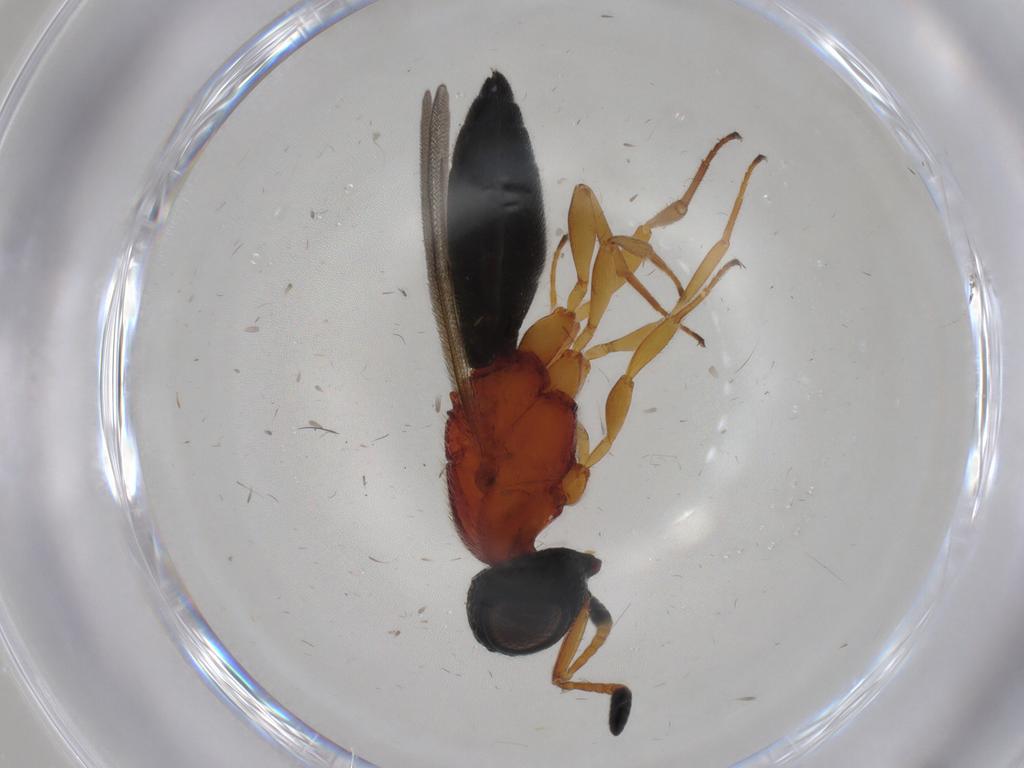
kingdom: Animalia
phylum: Arthropoda
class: Insecta
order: Hymenoptera
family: Scelionidae
